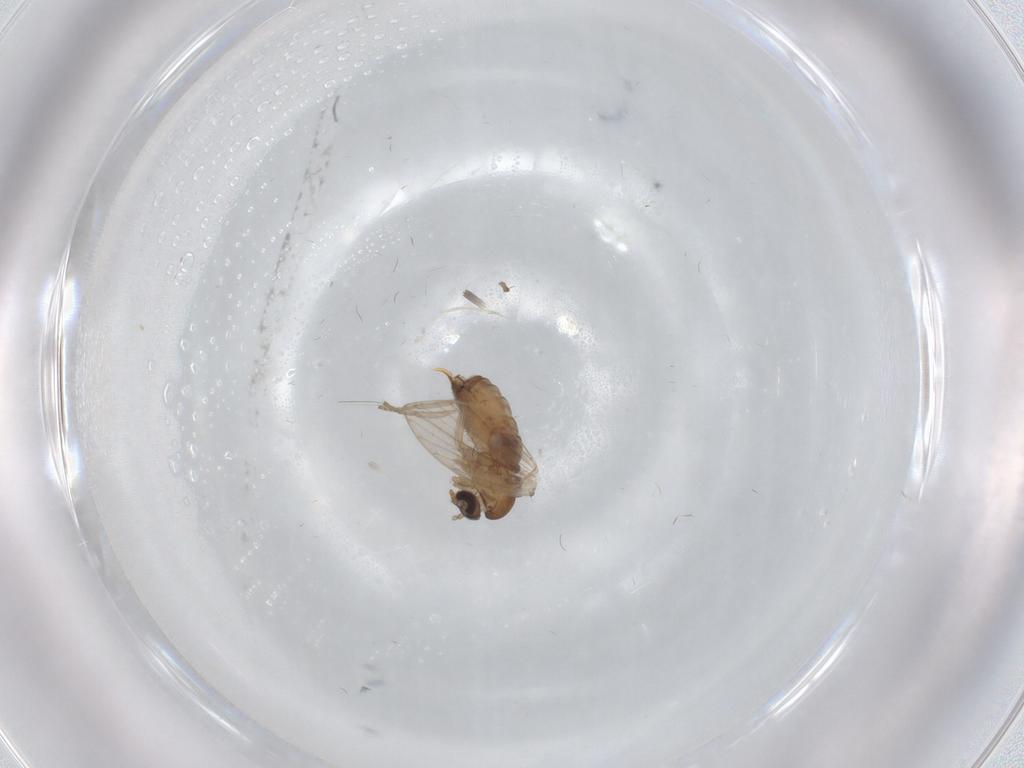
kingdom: Animalia
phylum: Arthropoda
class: Insecta
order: Diptera
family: Psychodidae
